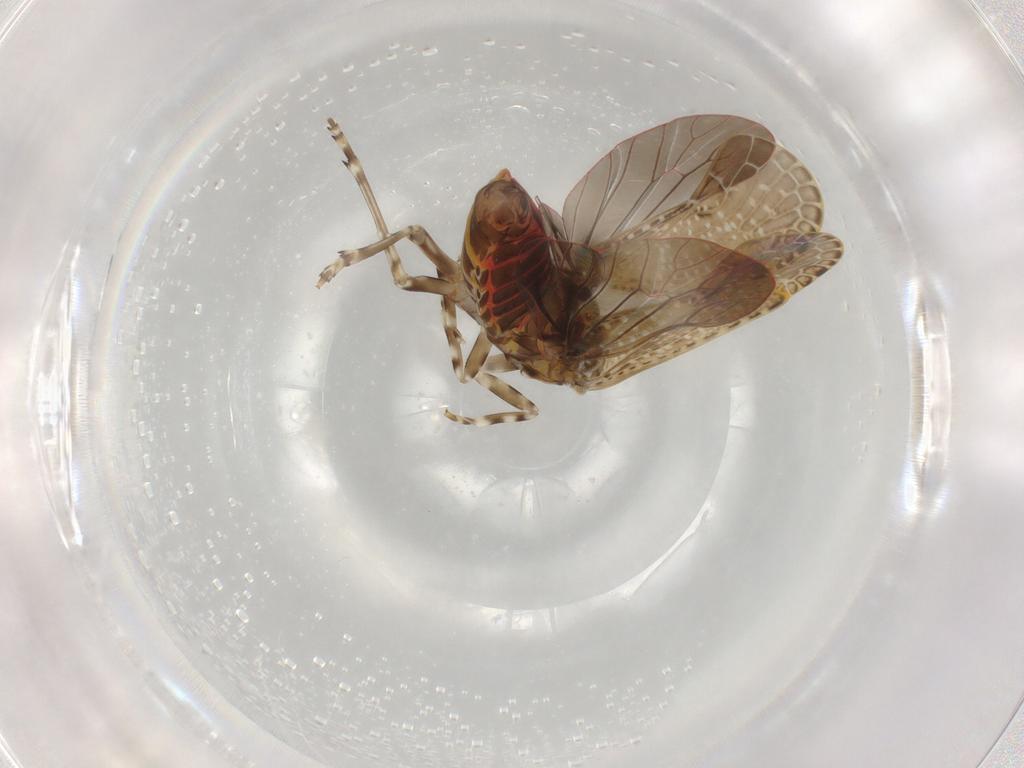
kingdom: Animalia
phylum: Arthropoda
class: Insecta
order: Hemiptera
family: Achilidae
